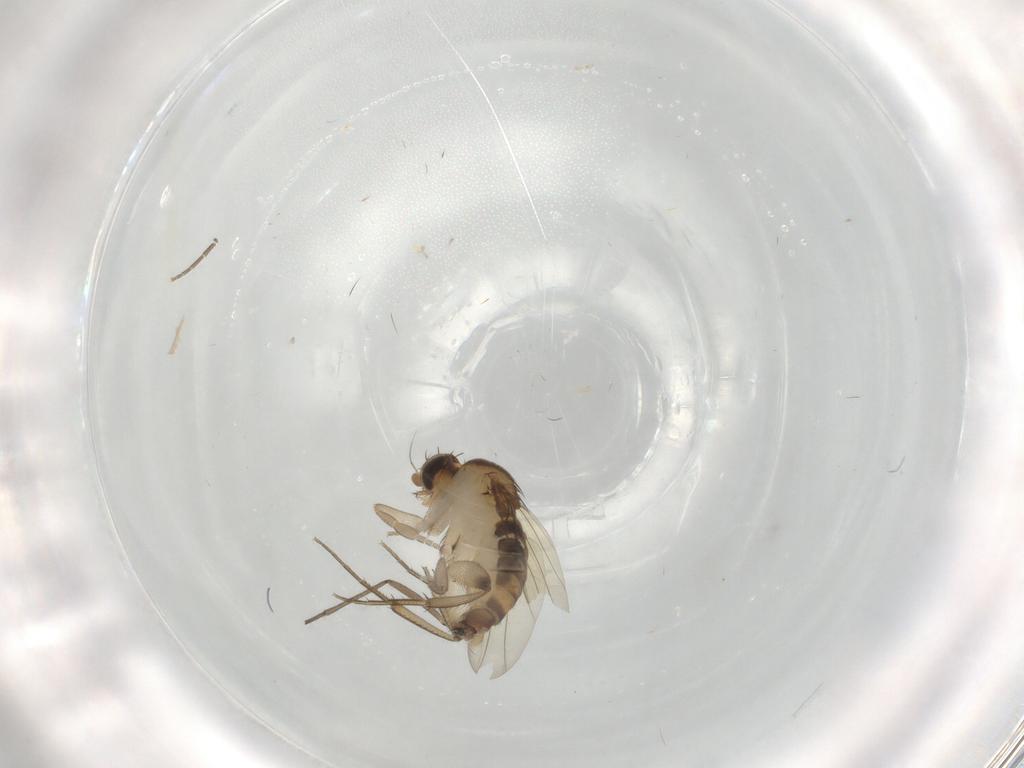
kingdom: Animalia
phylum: Arthropoda
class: Insecta
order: Diptera
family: Phoridae
